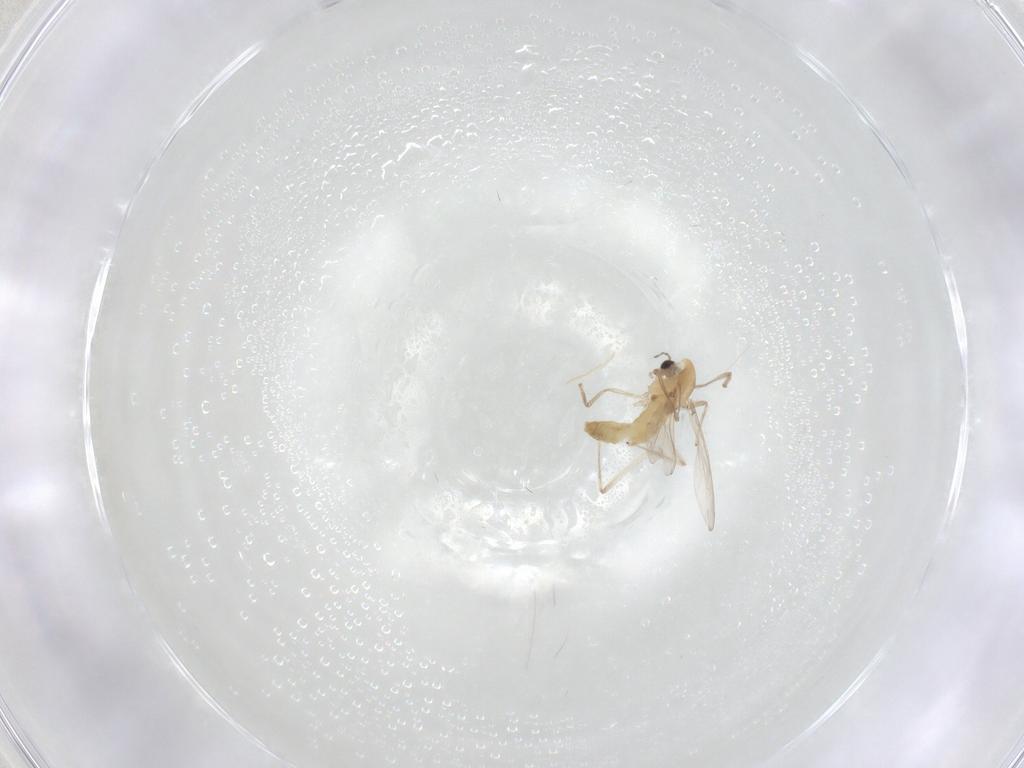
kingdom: Animalia
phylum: Arthropoda
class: Insecta
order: Diptera
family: Chironomidae
